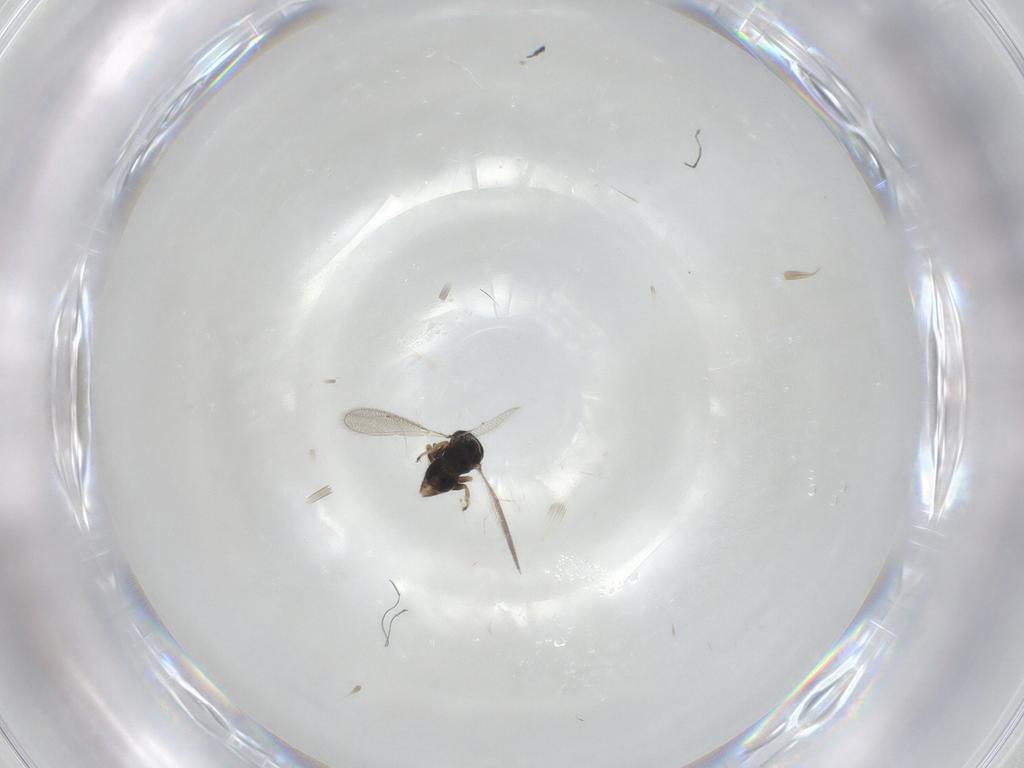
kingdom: Animalia
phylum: Arthropoda
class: Insecta
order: Hymenoptera
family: Eulophidae
